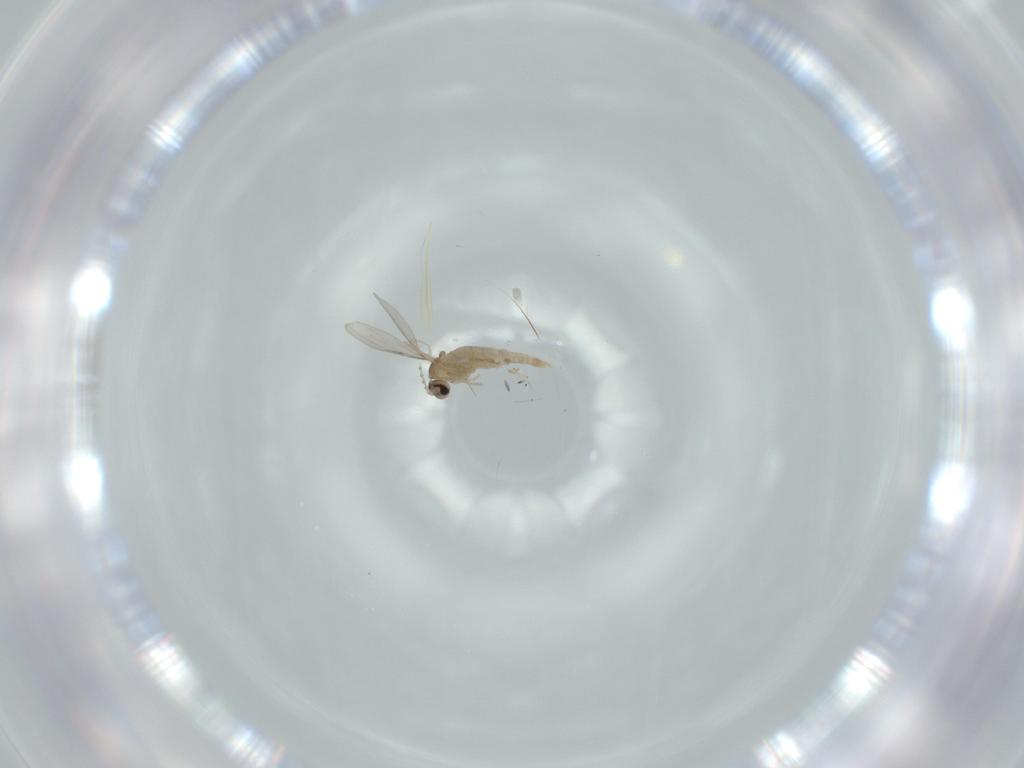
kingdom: Animalia
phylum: Arthropoda
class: Insecta
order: Diptera
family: Cecidomyiidae
